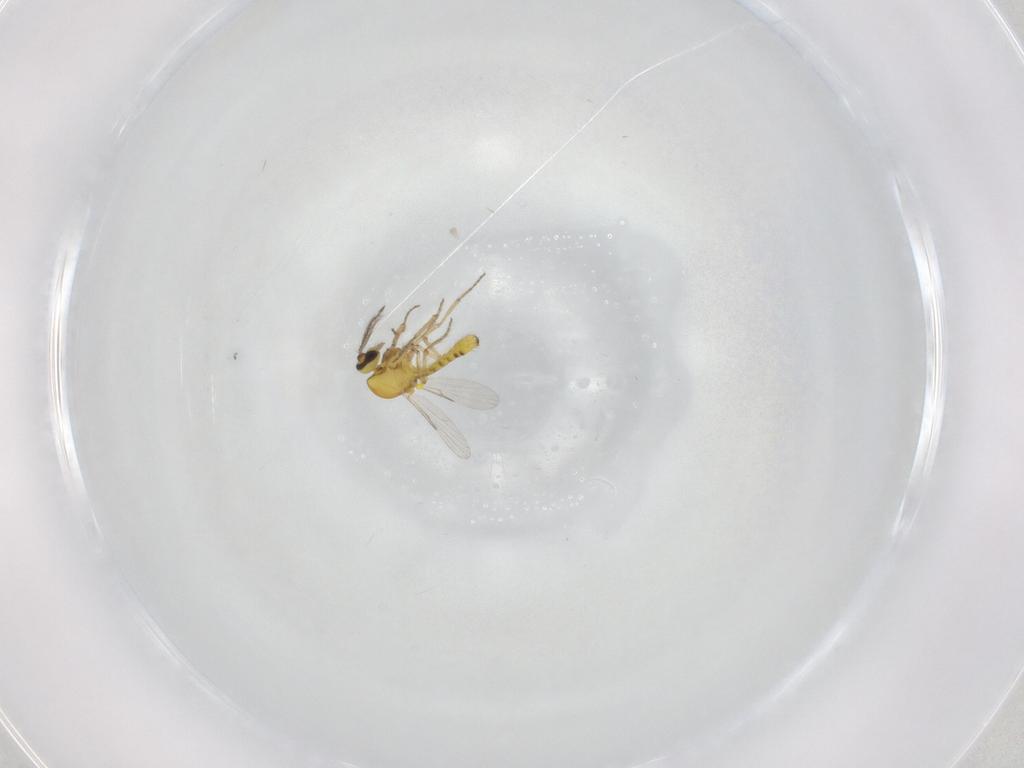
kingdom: Animalia
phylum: Arthropoda
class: Insecta
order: Diptera
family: Ceratopogonidae
